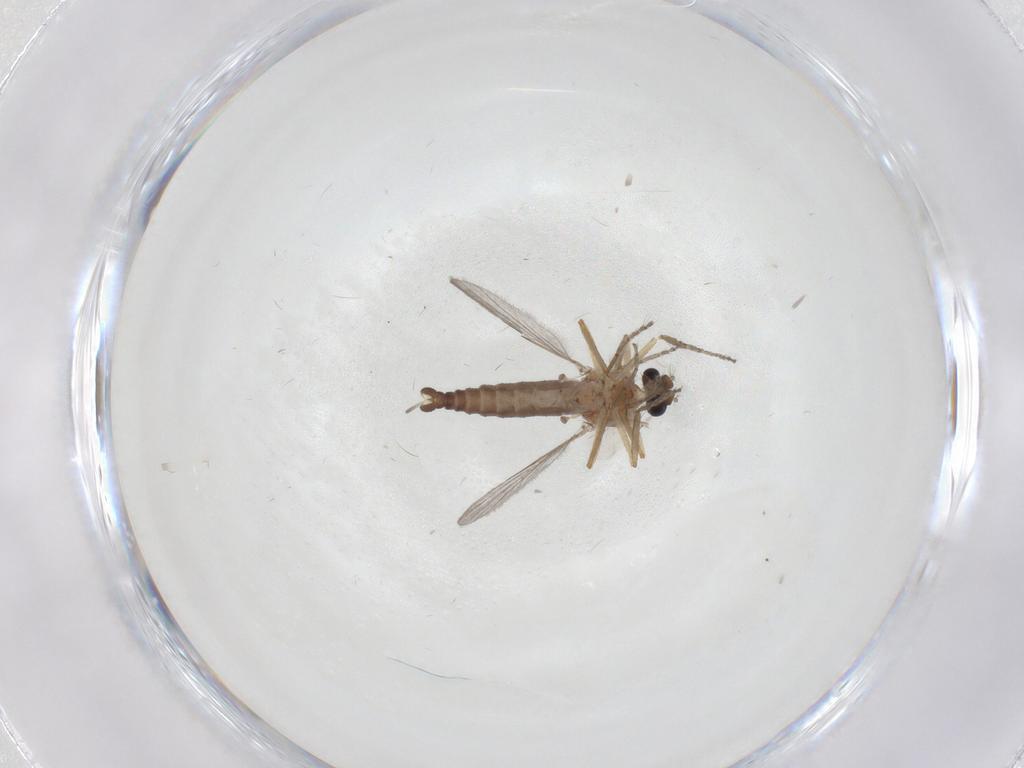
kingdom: Animalia
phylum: Arthropoda
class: Insecta
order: Diptera
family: Ceratopogonidae
